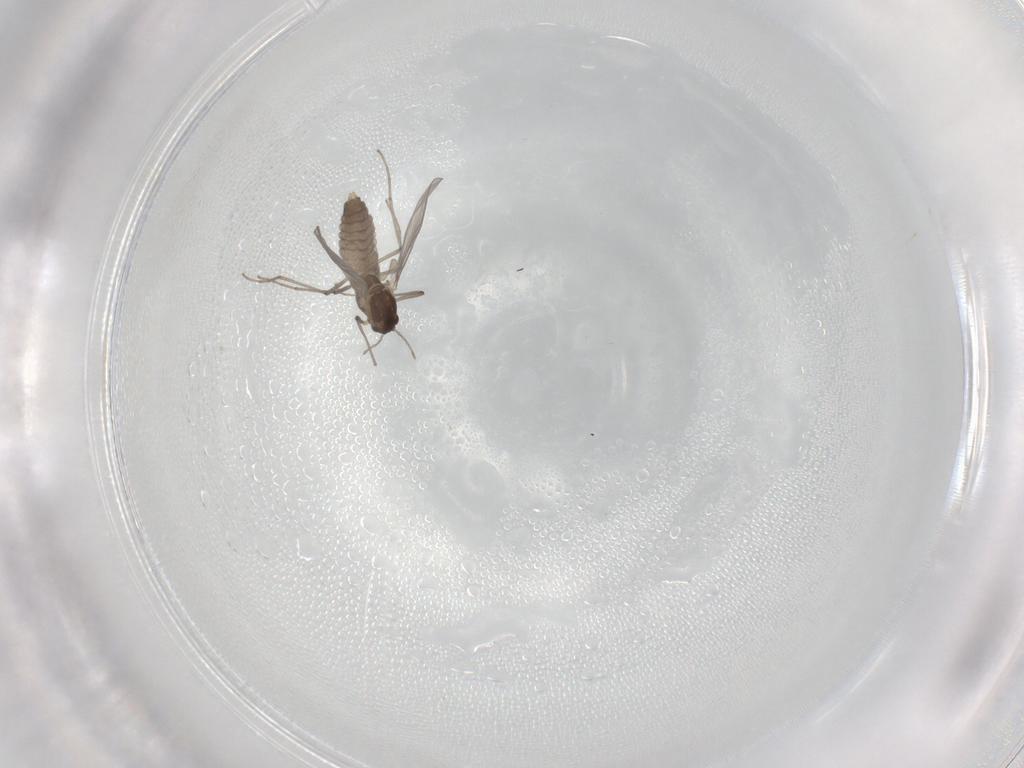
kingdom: Animalia
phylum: Arthropoda
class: Insecta
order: Diptera
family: Chironomidae
